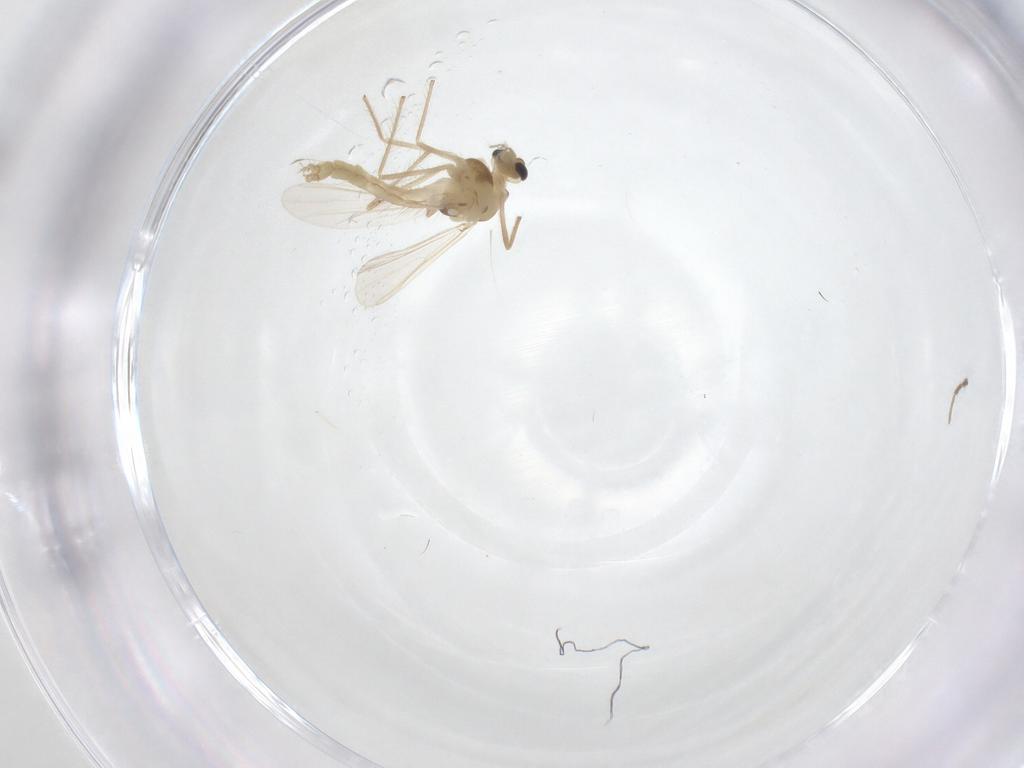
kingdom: Animalia
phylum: Arthropoda
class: Insecta
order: Diptera
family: Chironomidae
